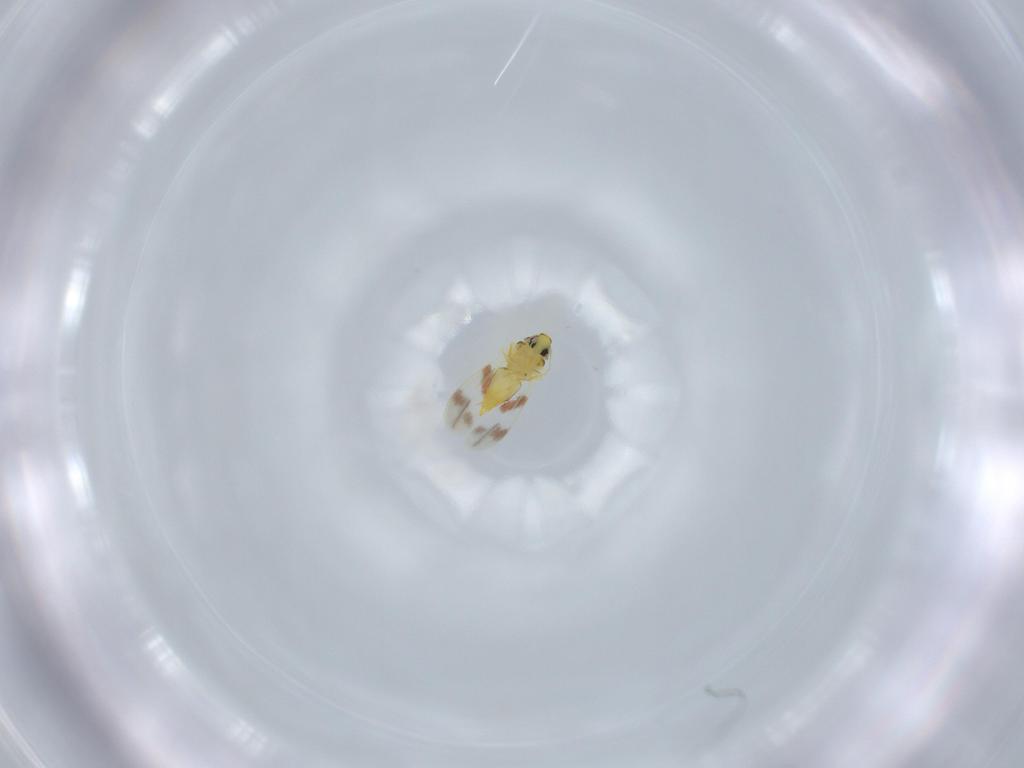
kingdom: Animalia
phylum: Arthropoda
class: Insecta
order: Hemiptera
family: Aleyrodidae
